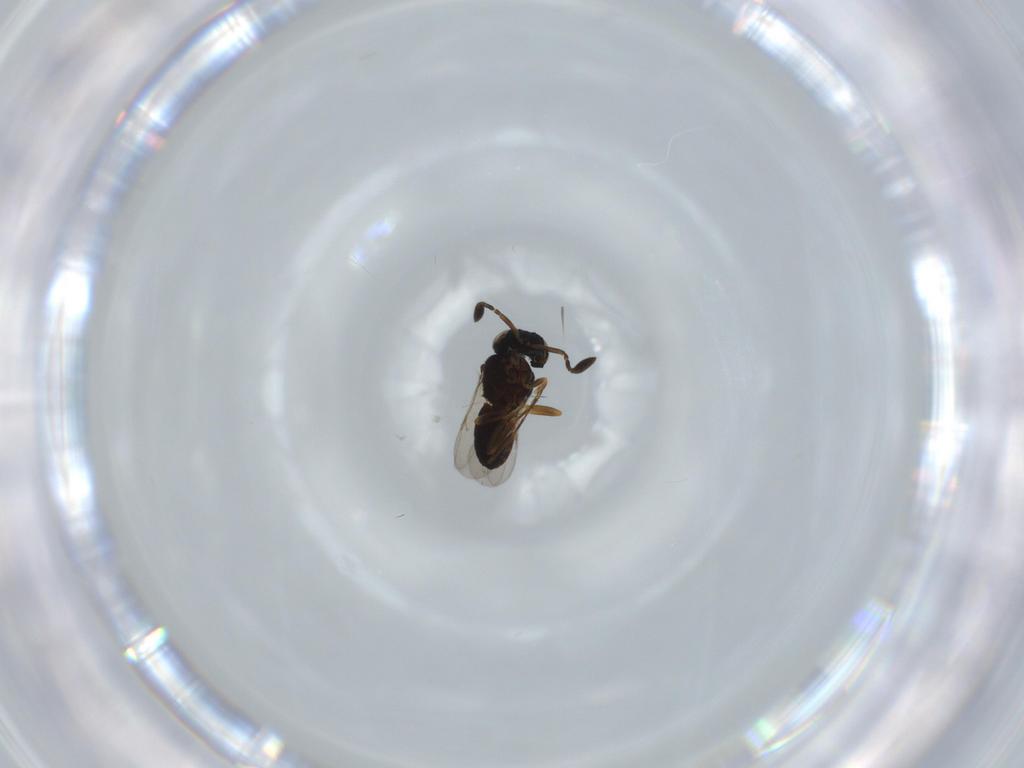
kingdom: Animalia
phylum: Arthropoda
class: Insecta
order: Hymenoptera
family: Scelionidae
